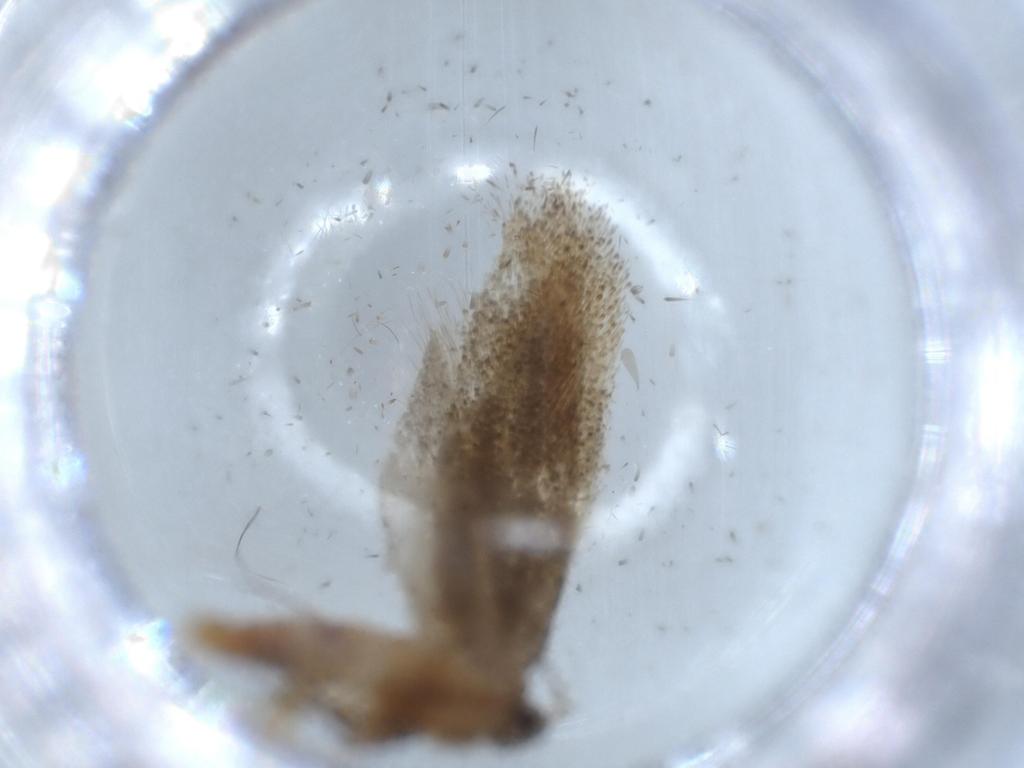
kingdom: Animalia
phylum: Arthropoda
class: Insecta
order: Lepidoptera
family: Oecophoridae
